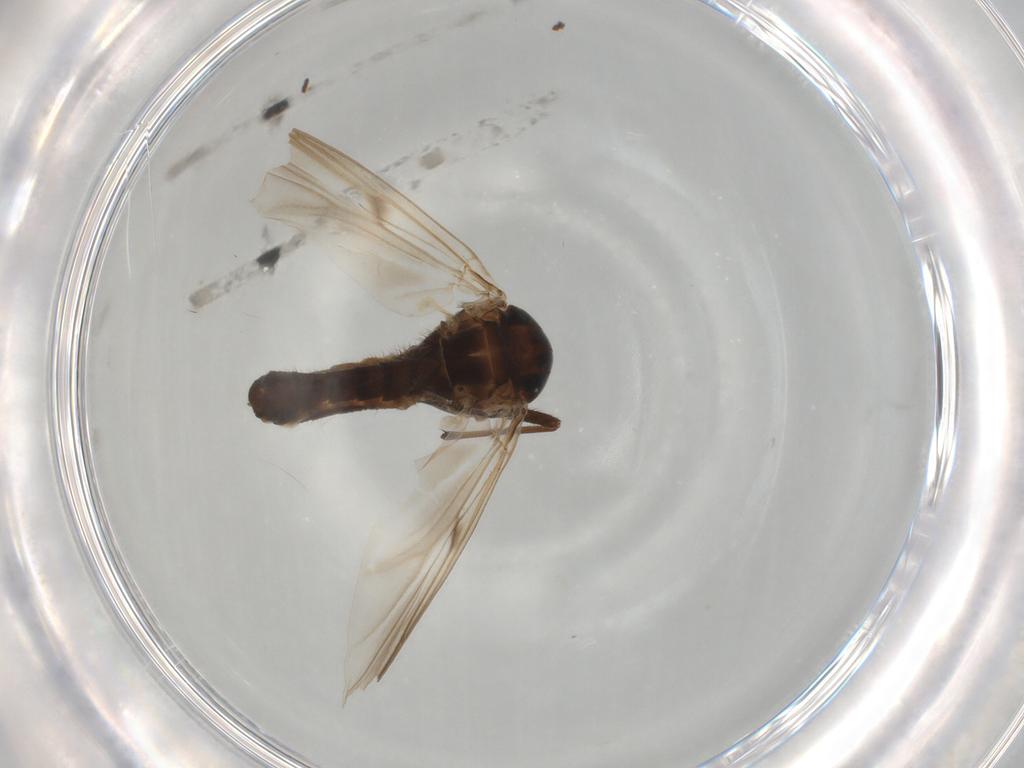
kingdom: Animalia
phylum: Arthropoda
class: Insecta
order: Diptera
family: Chironomidae
